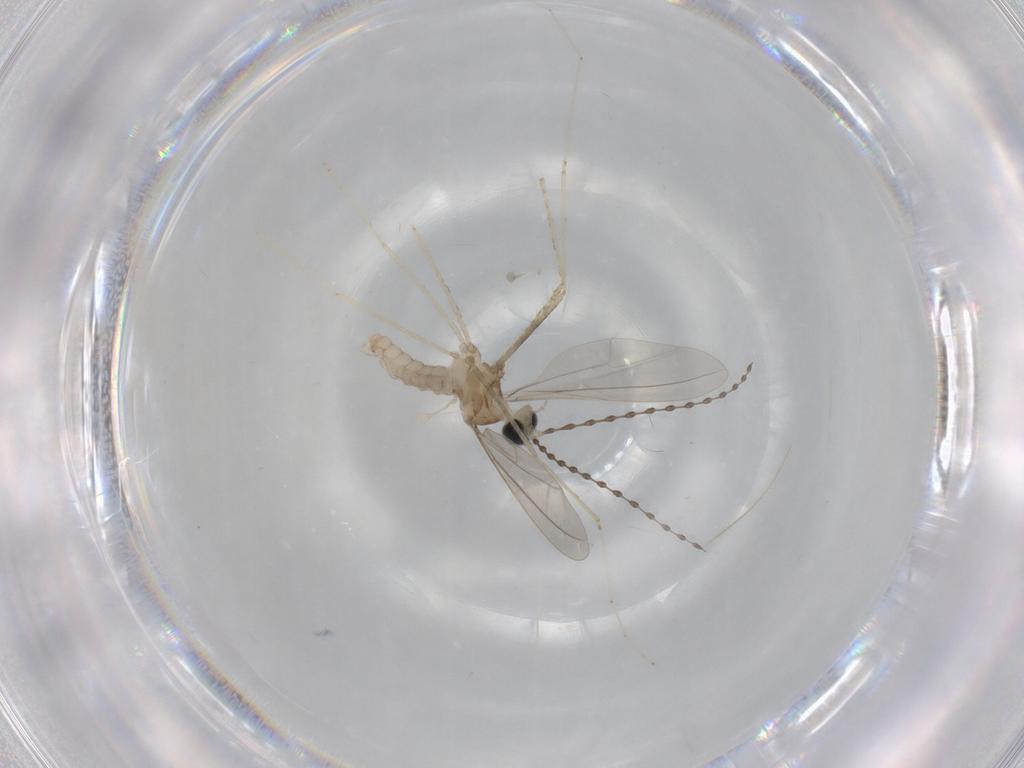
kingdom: Animalia
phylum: Arthropoda
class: Insecta
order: Diptera
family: Cecidomyiidae
